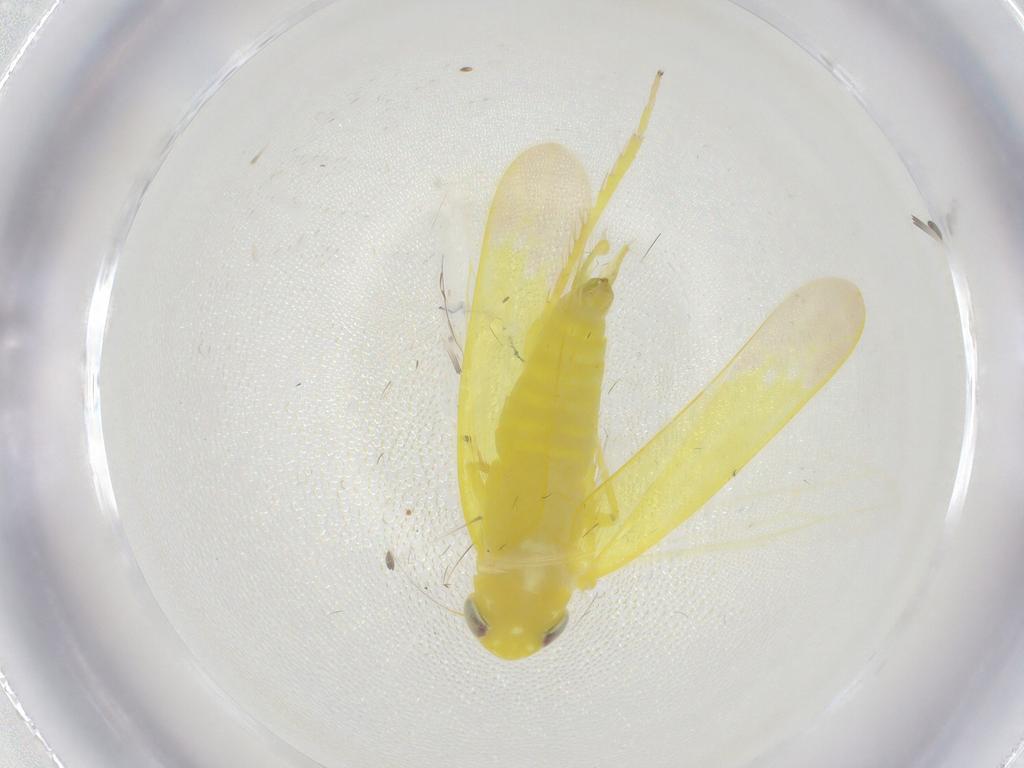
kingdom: Animalia
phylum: Arthropoda
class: Insecta
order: Hemiptera
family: Cicadellidae
